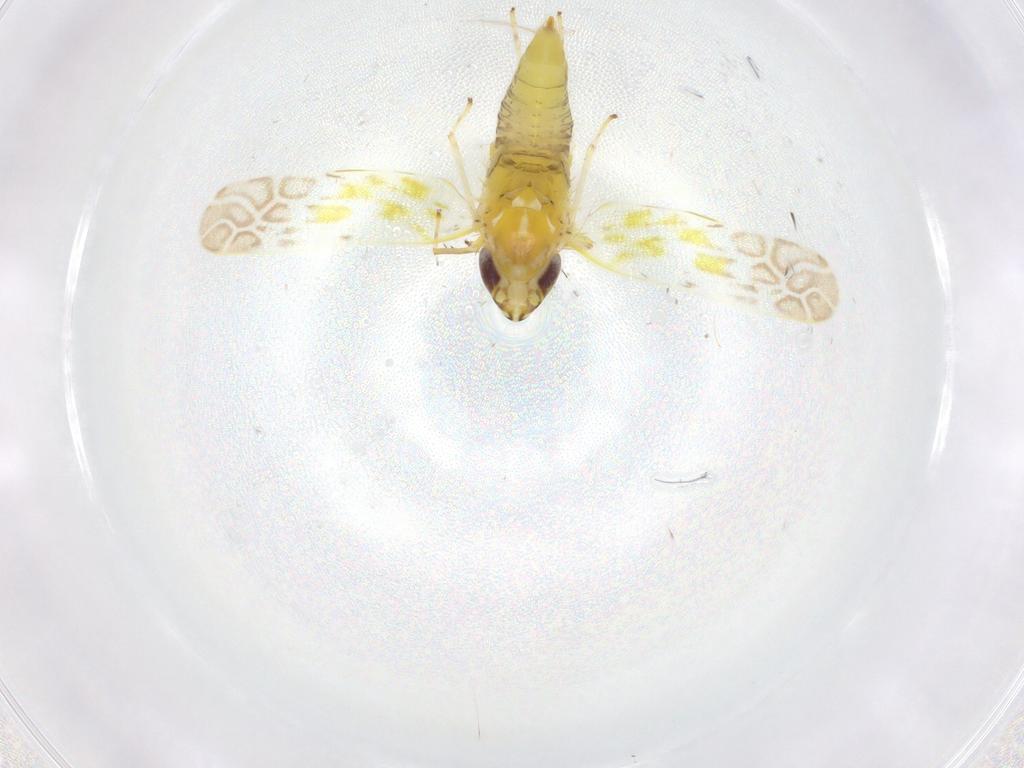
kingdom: Animalia
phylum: Arthropoda
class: Insecta
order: Hemiptera
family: Cicadellidae
